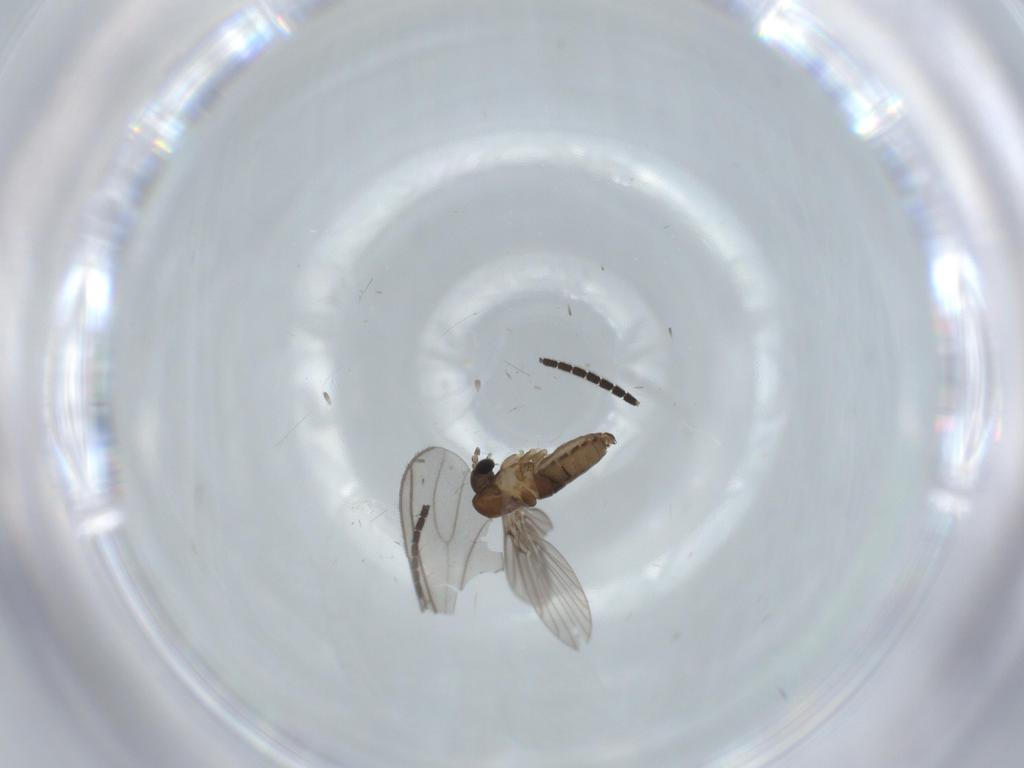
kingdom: Animalia
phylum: Arthropoda
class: Insecta
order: Diptera
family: Sciaridae
